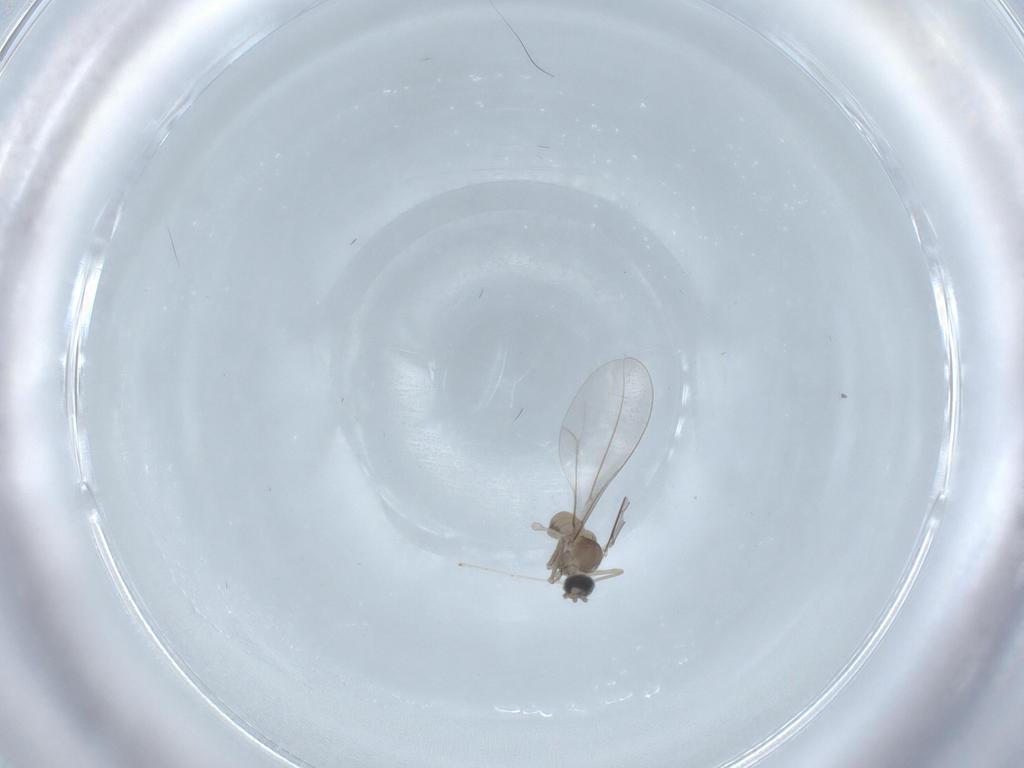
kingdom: Animalia
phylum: Arthropoda
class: Insecta
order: Diptera
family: Cecidomyiidae
